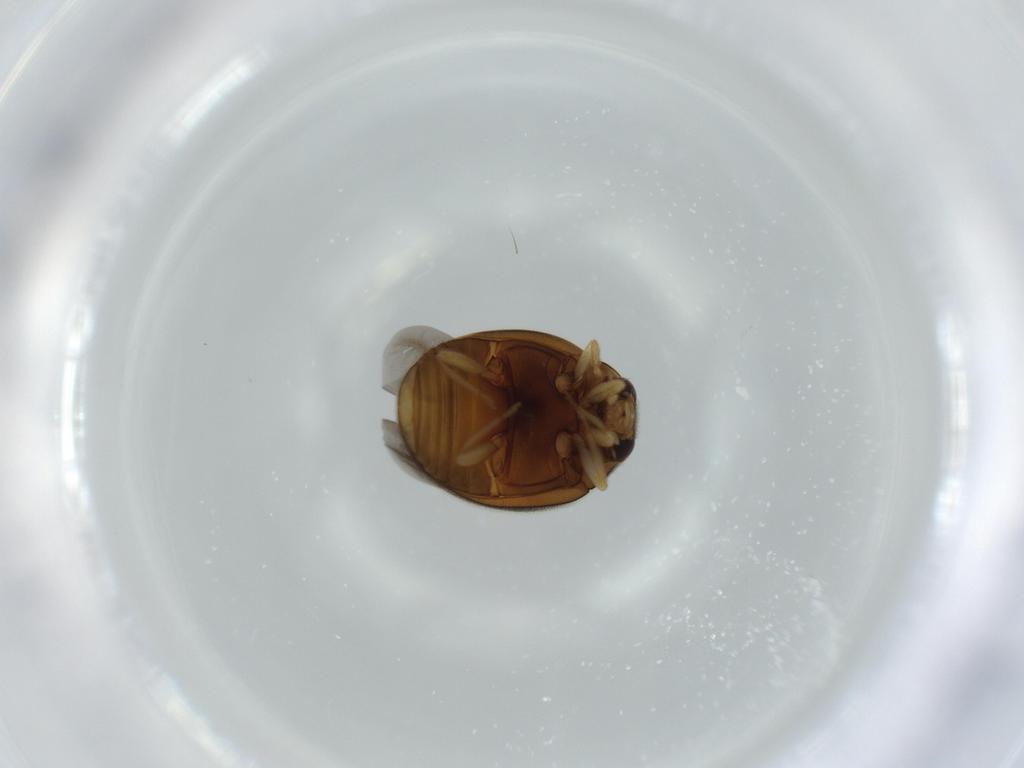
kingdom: Animalia
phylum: Arthropoda
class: Insecta
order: Coleoptera
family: Coccinellidae
